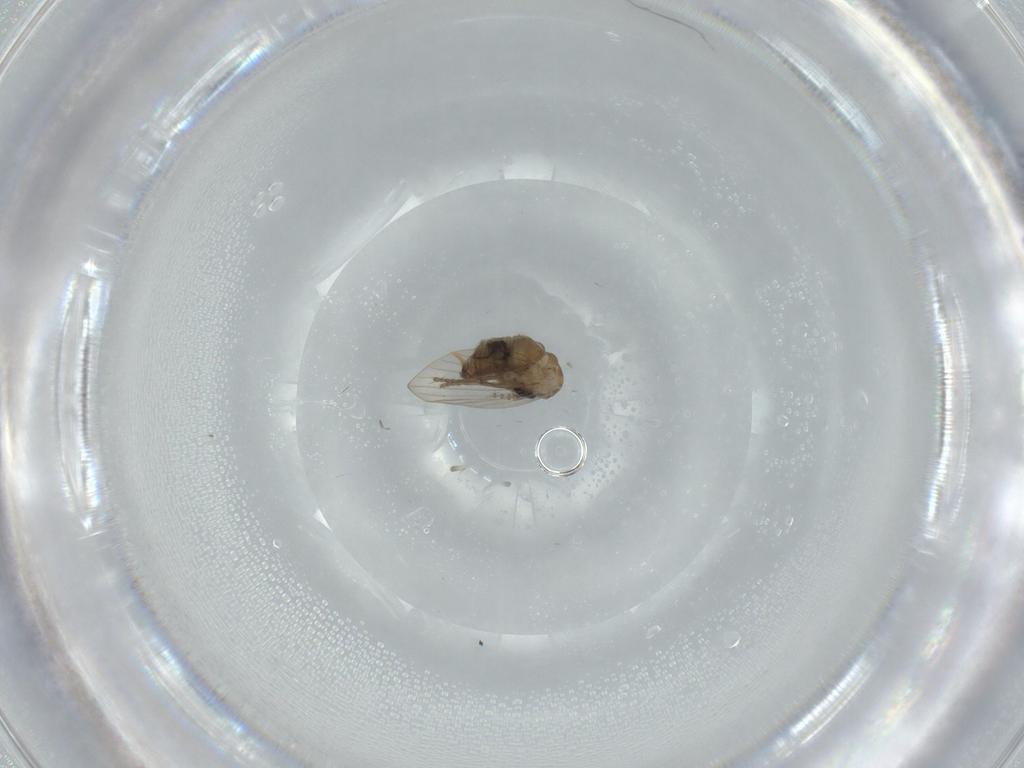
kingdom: Animalia
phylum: Arthropoda
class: Insecta
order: Diptera
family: Psychodidae
